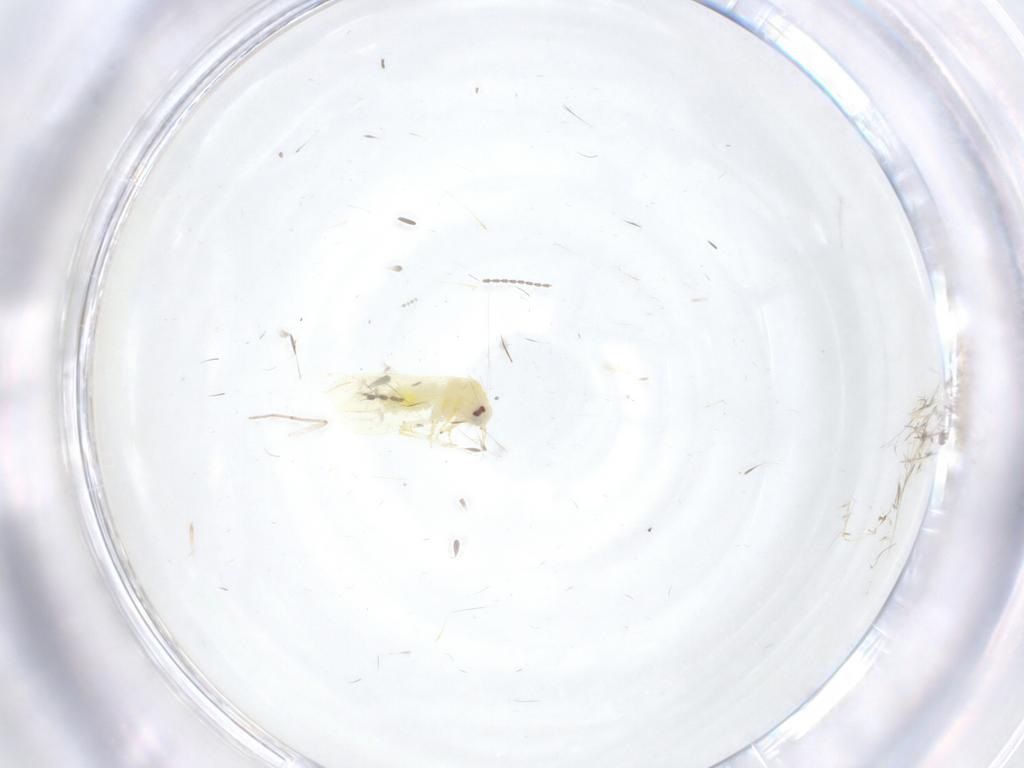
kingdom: Animalia
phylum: Arthropoda
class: Insecta
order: Hemiptera
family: Aleyrodidae
